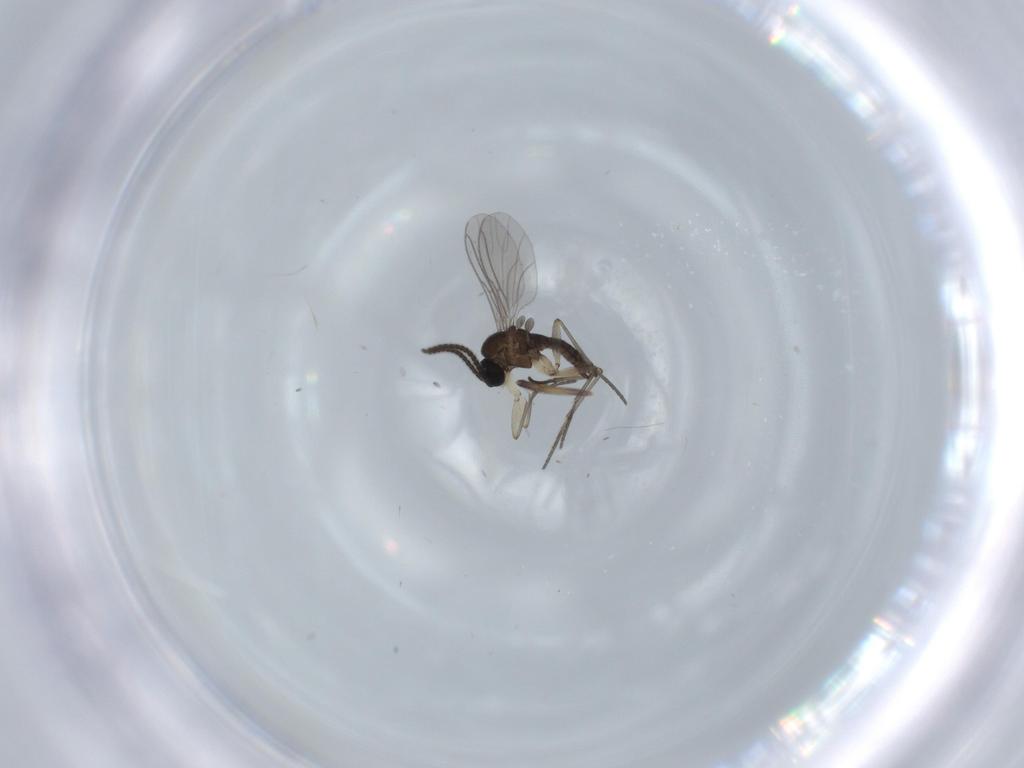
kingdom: Animalia
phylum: Arthropoda
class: Insecta
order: Diptera
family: Sciaridae
